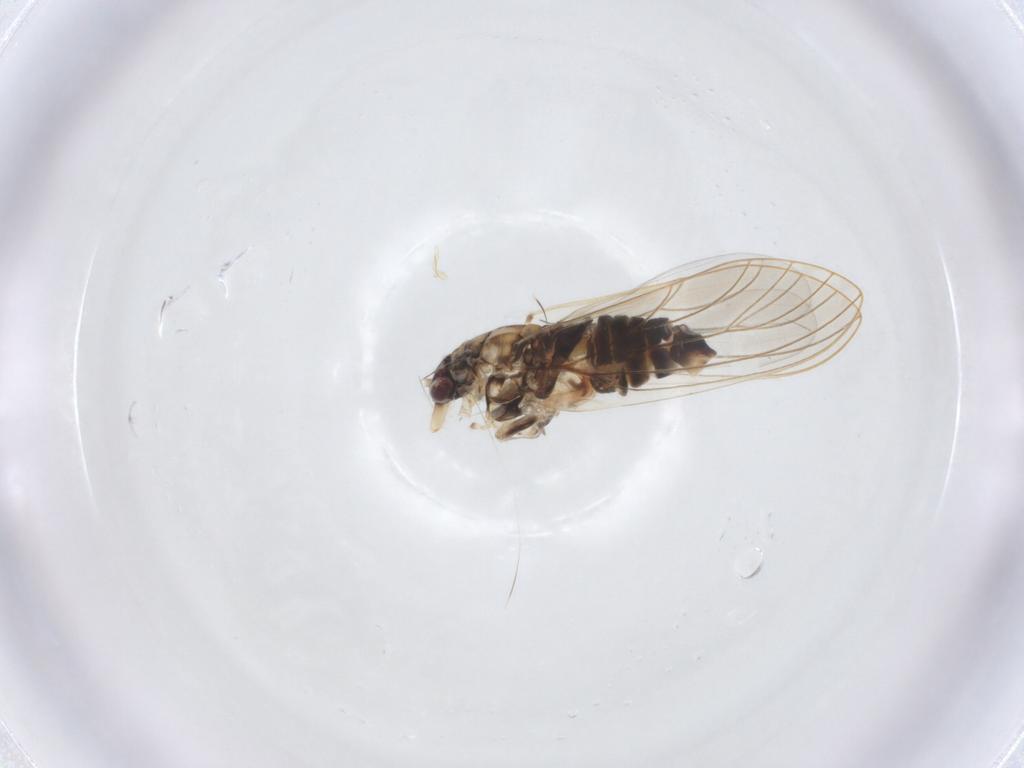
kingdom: Animalia
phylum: Arthropoda
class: Insecta
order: Hemiptera
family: Aphalaridae
